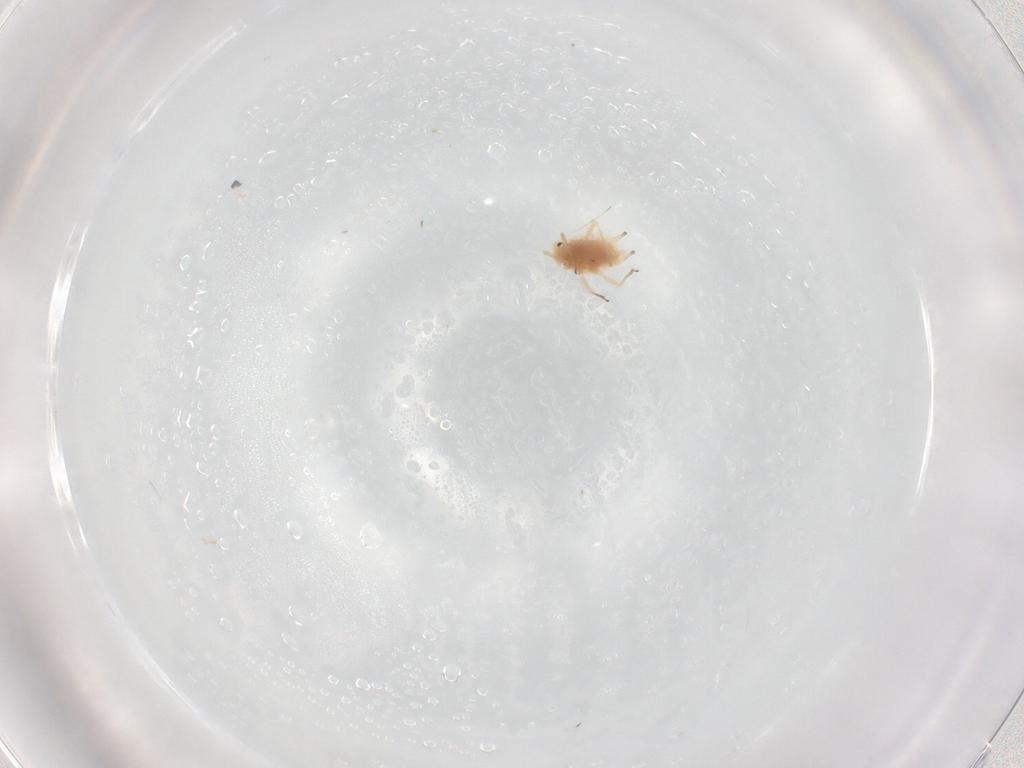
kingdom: Animalia
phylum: Arthropoda
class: Insecta
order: Hemiptera
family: Aphididae
